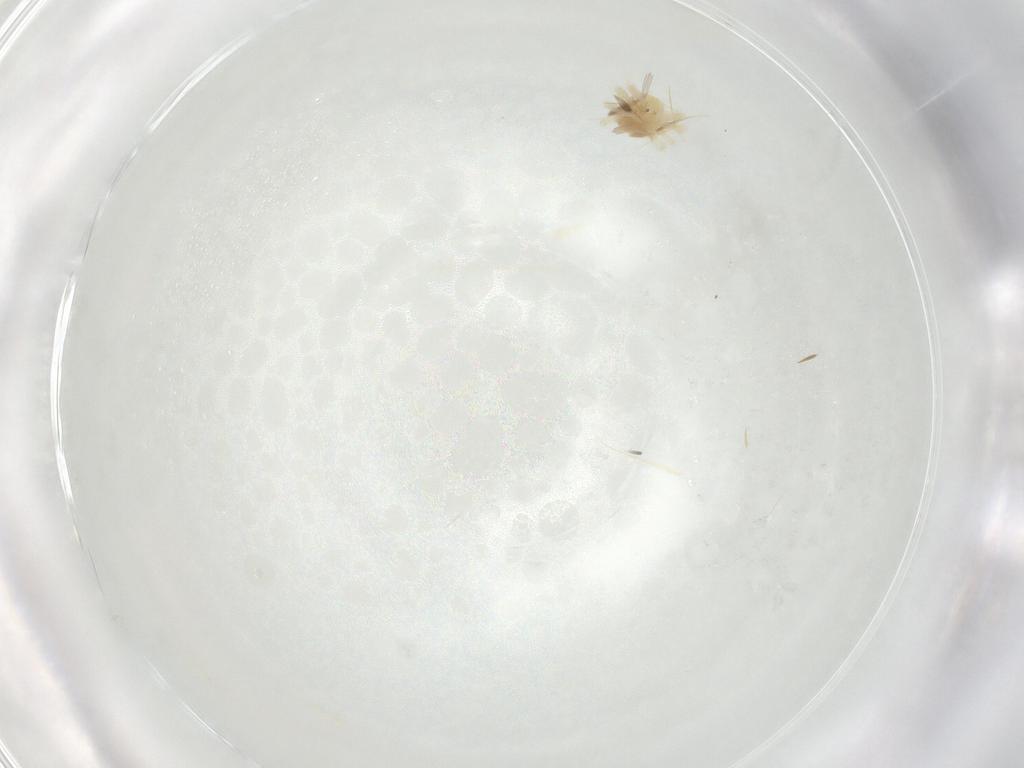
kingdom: Animalia
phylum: Arthropoda
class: Arachnida
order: Trombidiformes
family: Anystidae
